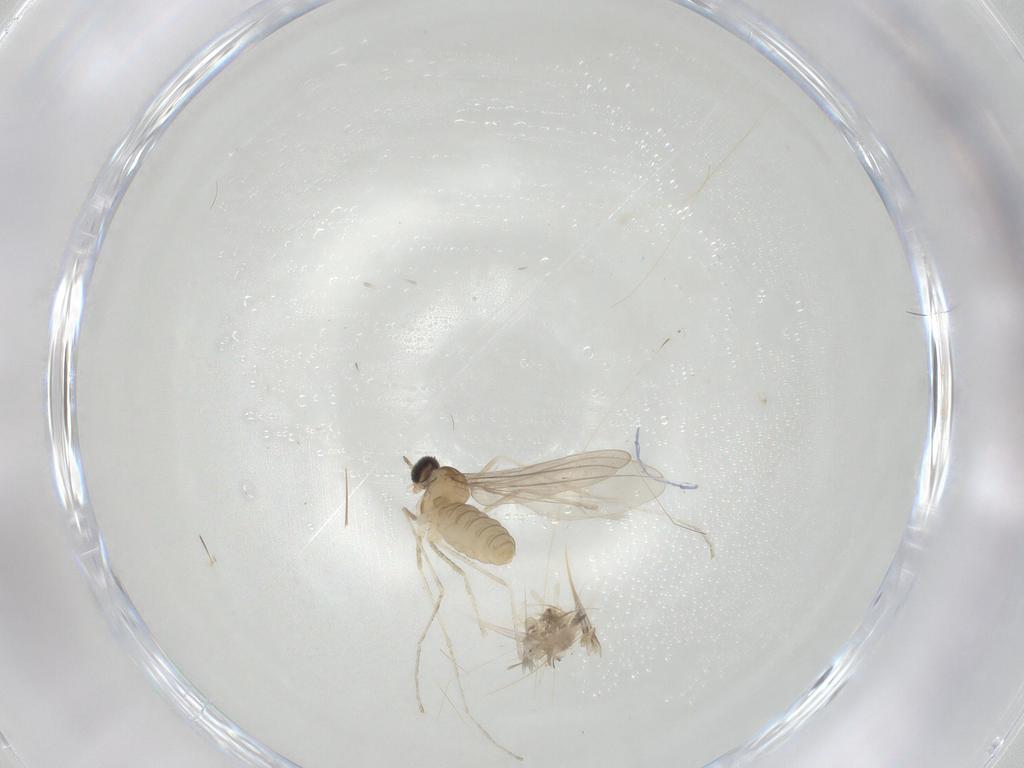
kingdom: Animalia
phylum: Arthropoda
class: Insecta
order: Diptera
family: Cecidomyiidae
